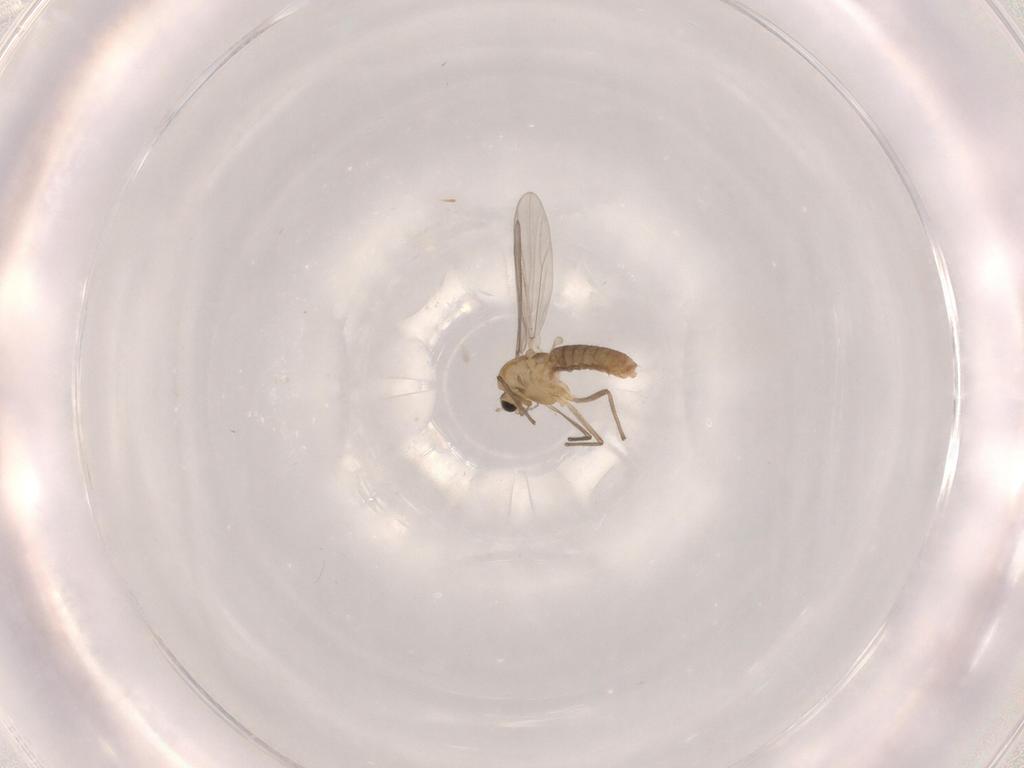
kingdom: Animalia
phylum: Arthropoda
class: Insecta
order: Diptera
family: Chironomidae
